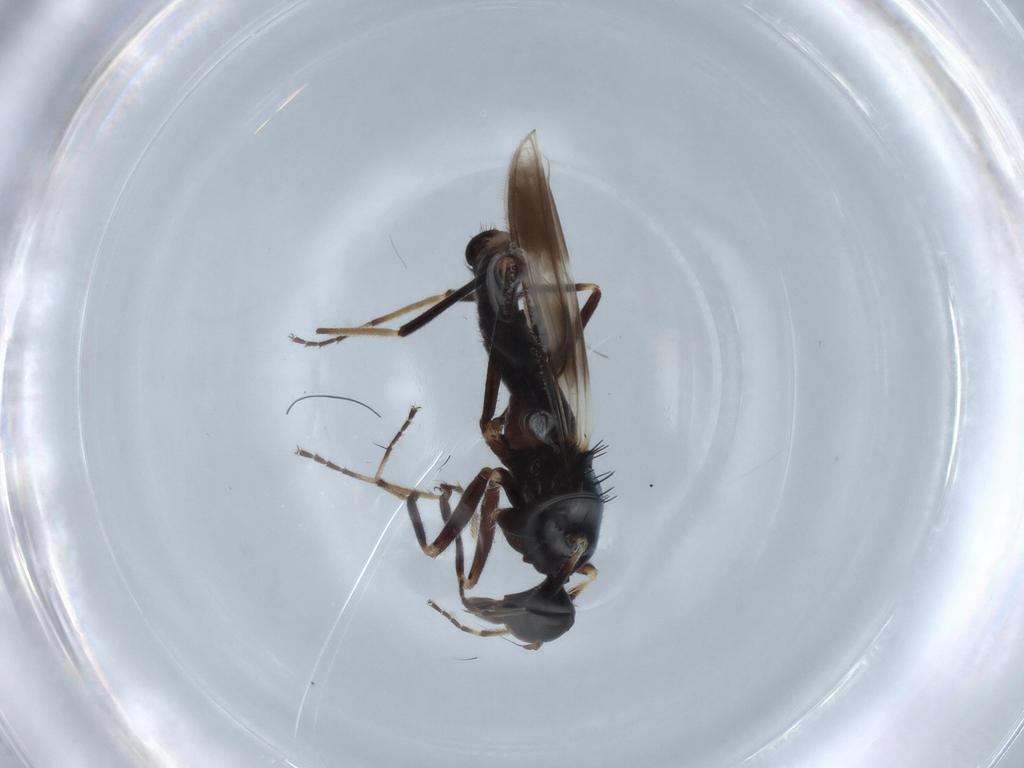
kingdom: Animalia
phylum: Arthropoda
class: Insecta
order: Diptera
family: Hybotidae
